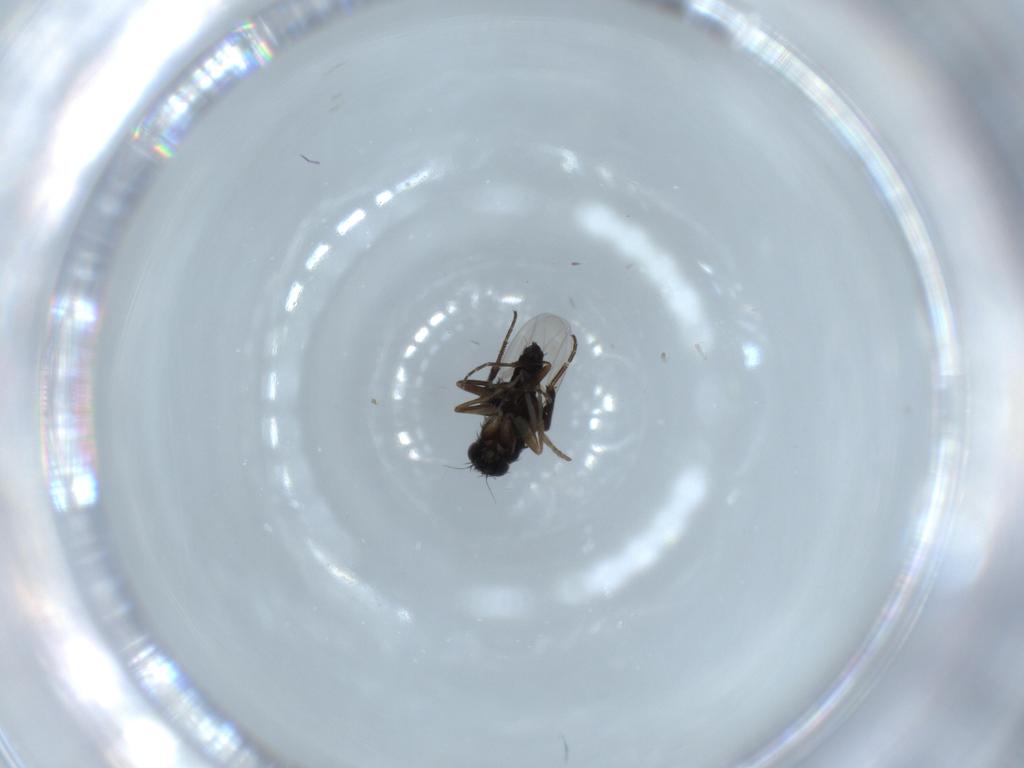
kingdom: Animalia
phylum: Arthropoda
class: Insecta
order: Diptera
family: Phoridae
